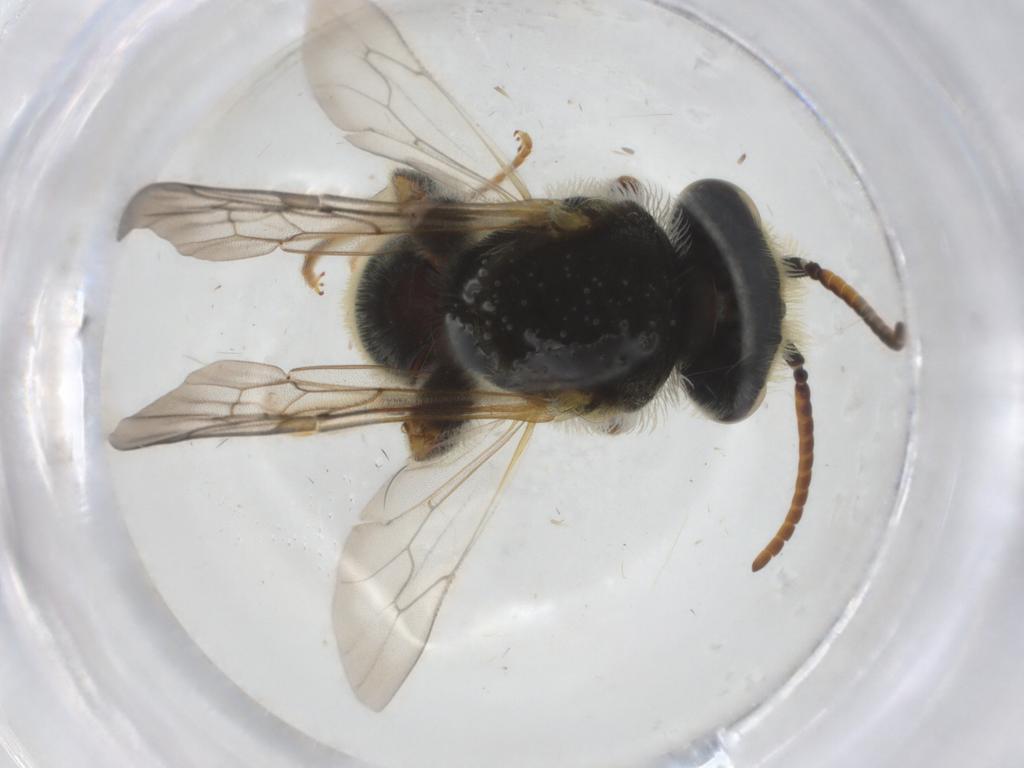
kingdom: Animalia
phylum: Arthropoda
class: Insecta
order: Hymenoptera
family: Halictidae
